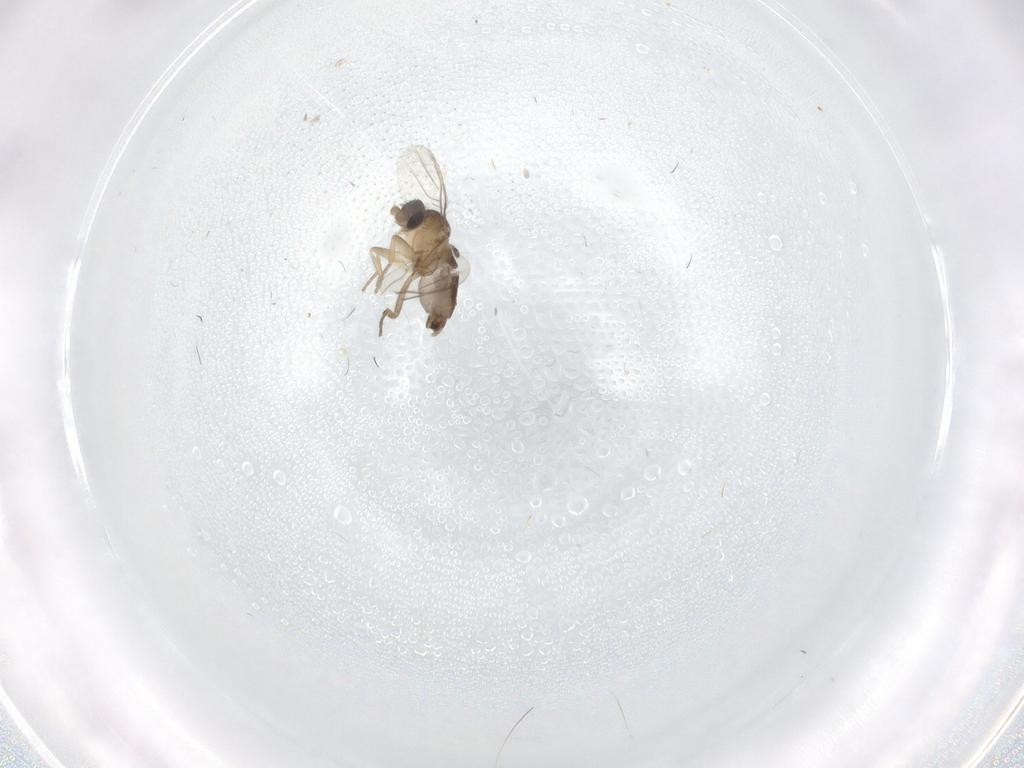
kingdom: Animalia
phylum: Arthropoda
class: Insecta
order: Diptera
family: Phoridae
